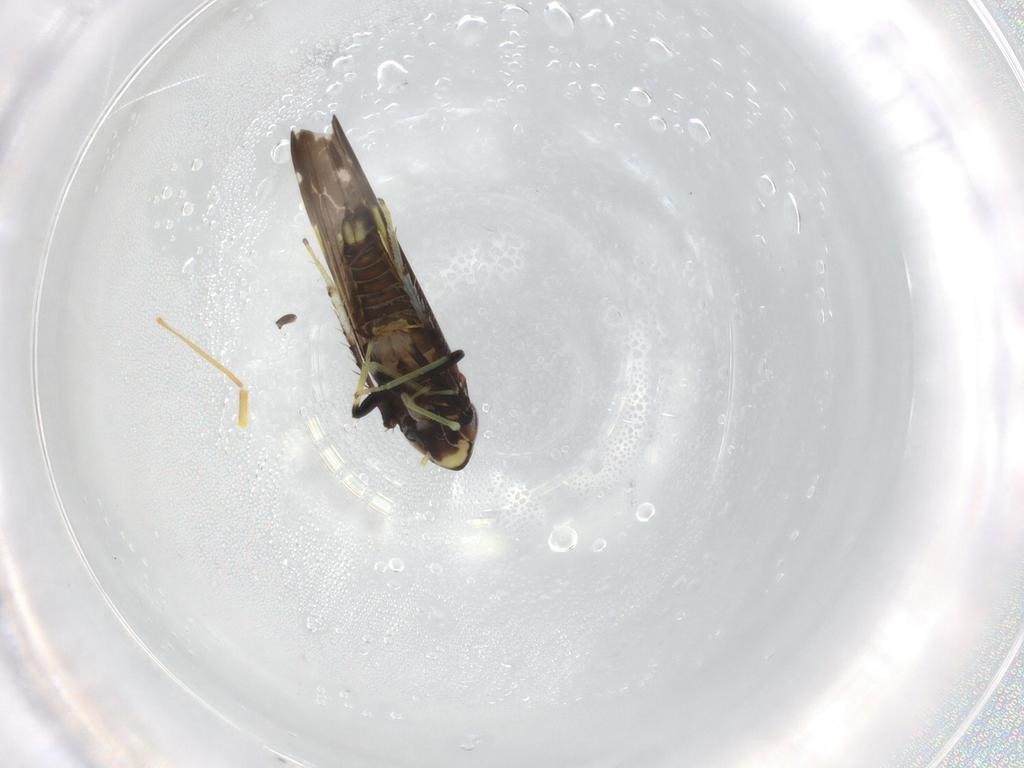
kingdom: Animalia
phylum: Arthropoda
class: Insecta
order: Hemiptera
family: Cicadellidae
